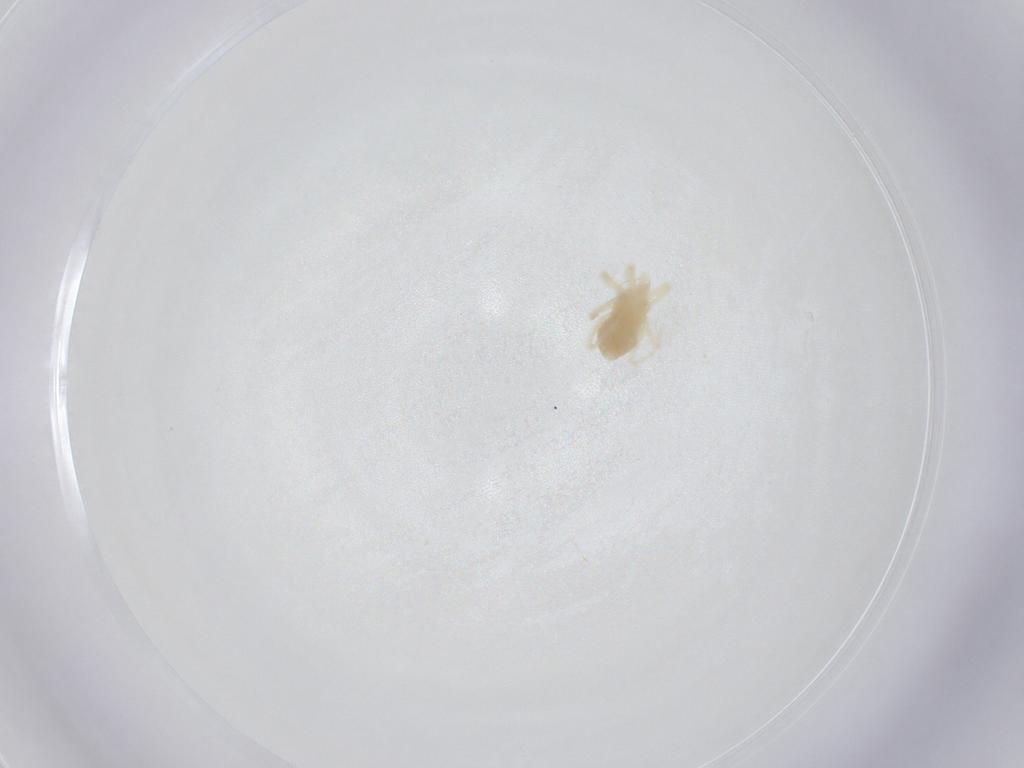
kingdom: Animalia
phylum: Arthropoda
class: Arachnida
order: Trombidiformes
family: Anystidae
